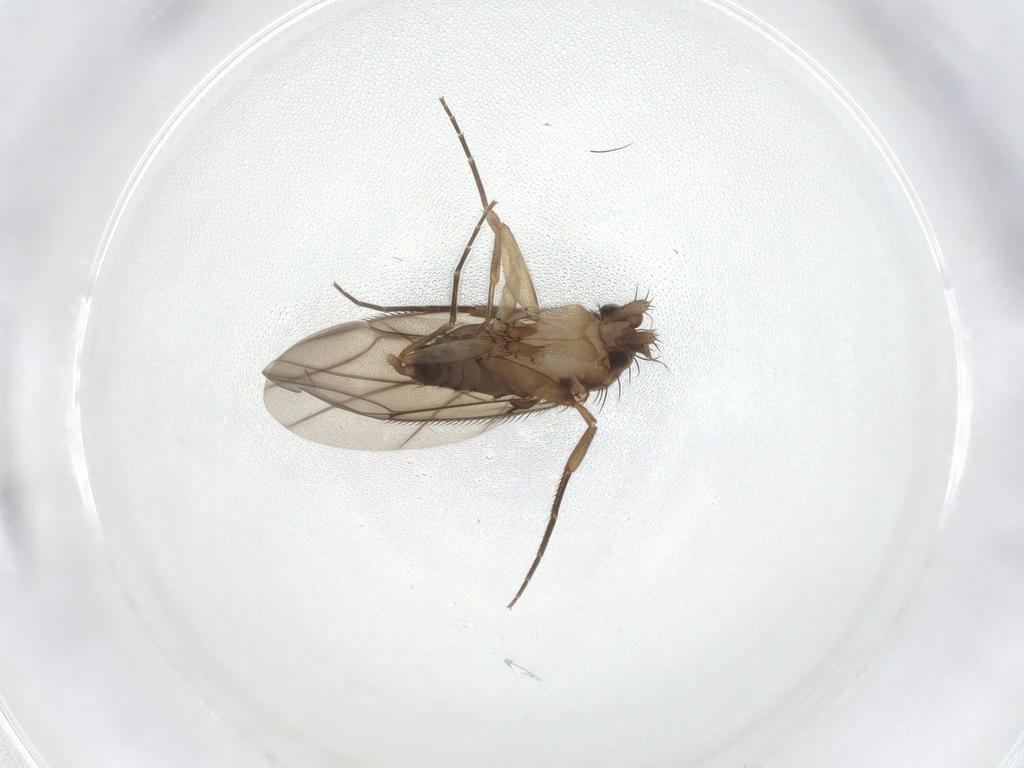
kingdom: Animalia
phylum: Arthropoda
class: Insecta
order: Diptera
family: Phoridae
